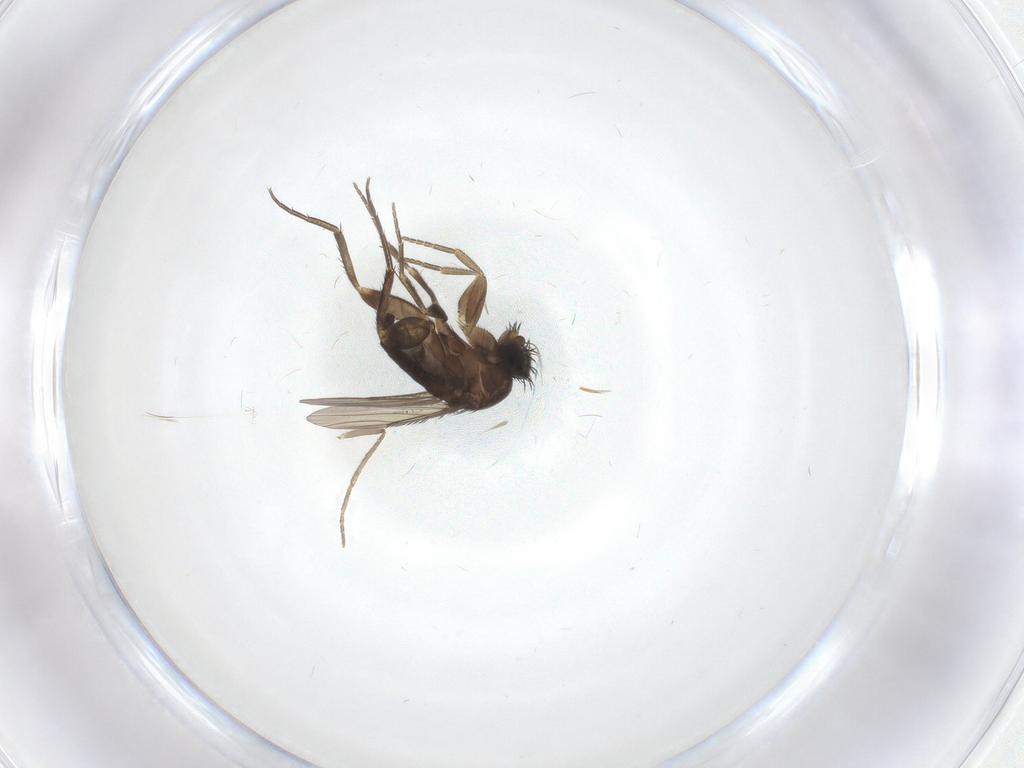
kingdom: Animalia
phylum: Arthropoda
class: Insecta
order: Diptera
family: Phoridae
